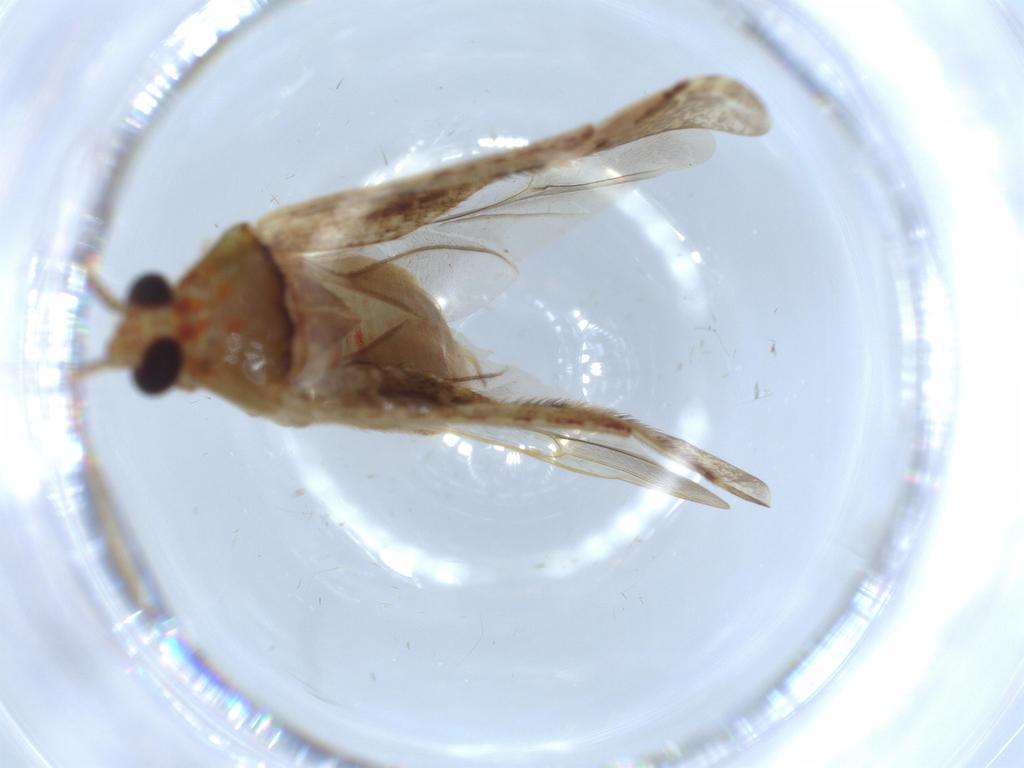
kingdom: Animalia
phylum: Arthropoda
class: Insecta
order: Hemiptera
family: Miridae
